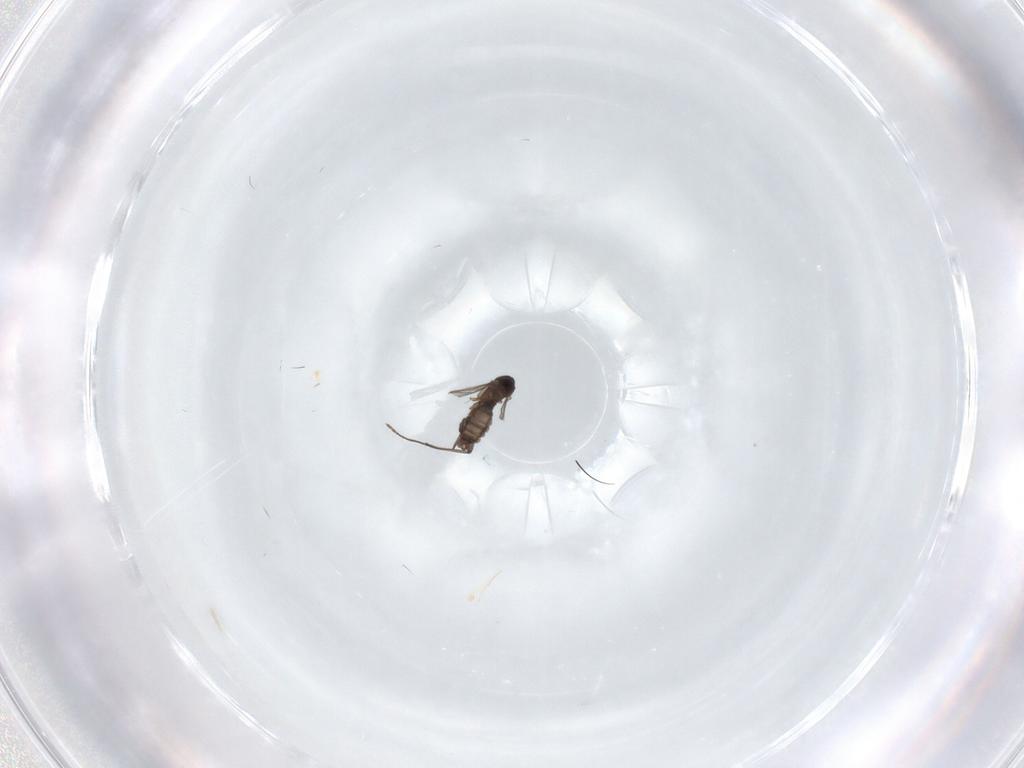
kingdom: Animalia
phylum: Arthropoda
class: Insecta
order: Diptera
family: Sciaridae
